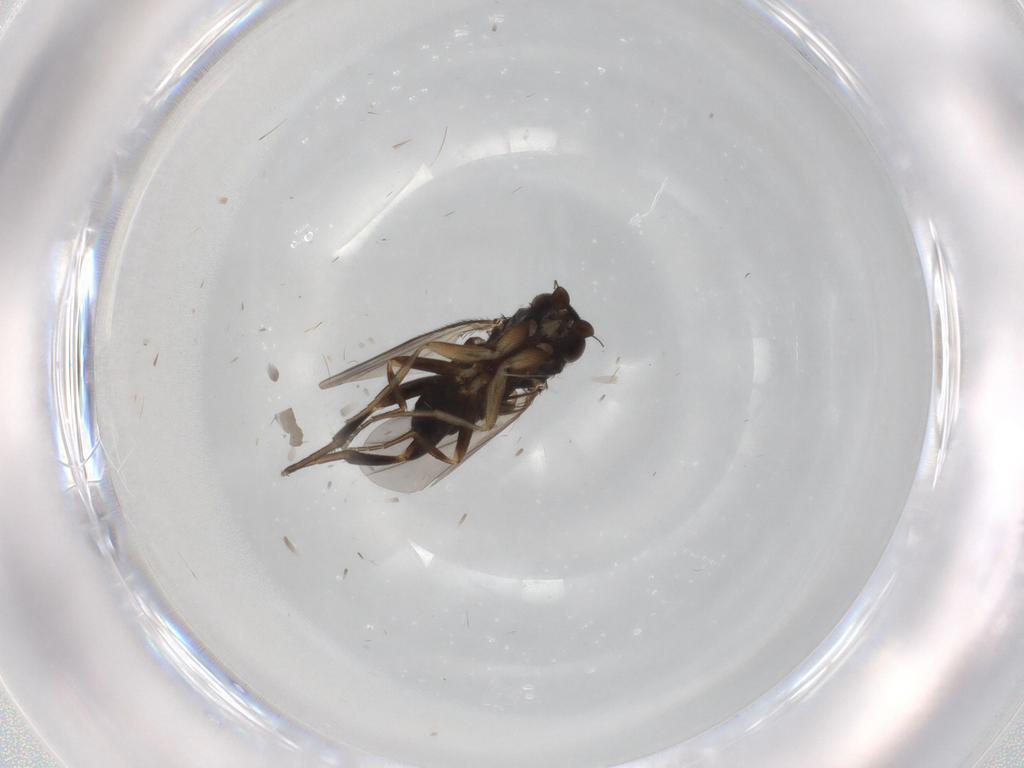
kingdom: Animalia
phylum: Arthropoda
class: Insecta
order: Diptera
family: Phoridae
